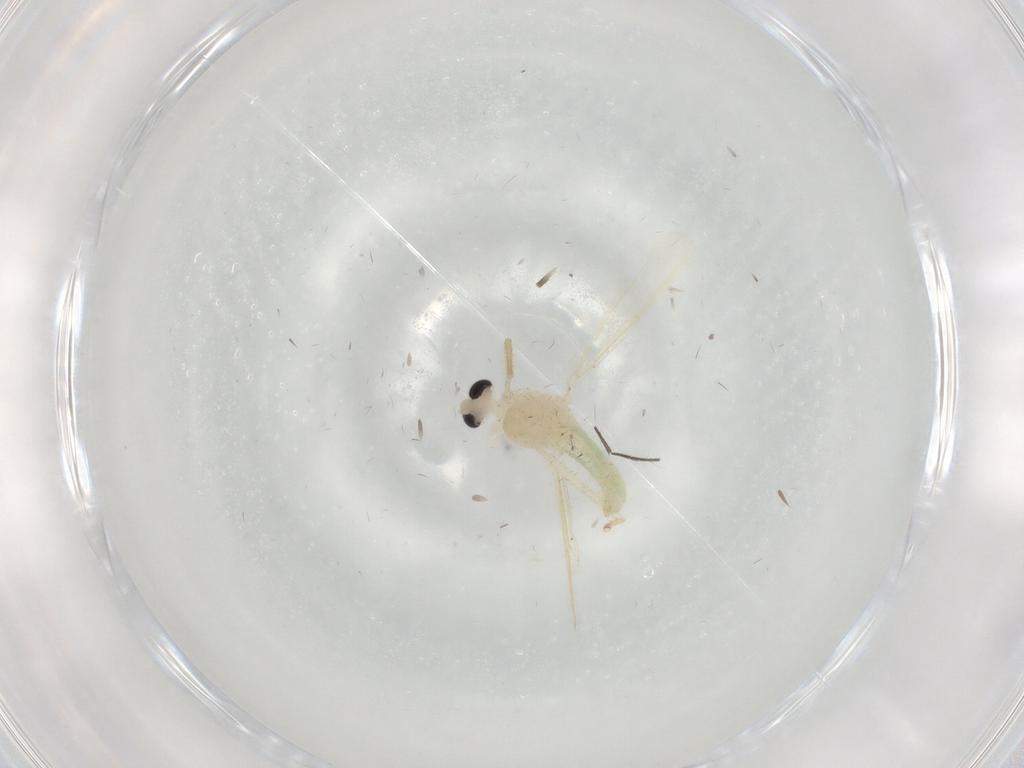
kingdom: Animalia
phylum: Arthropoda
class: Insecta
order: Diptera
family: Chironomidae
